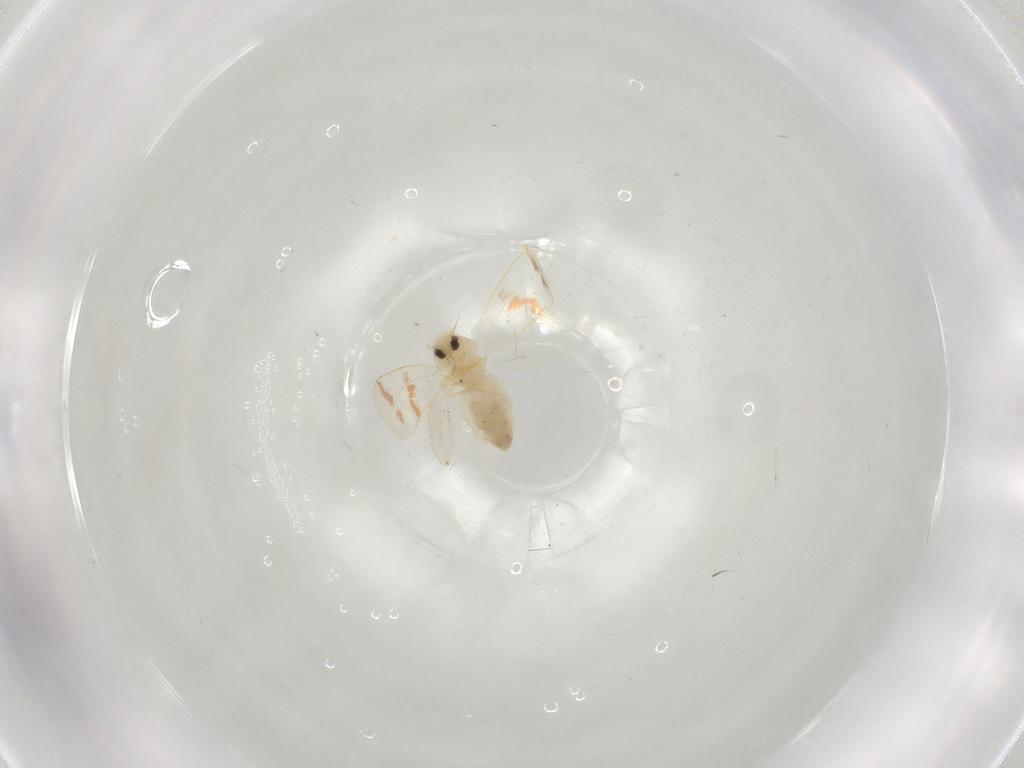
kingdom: Animalia
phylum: Arthropoda
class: Insecta
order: Hemiptera
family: Aleyrodidae
